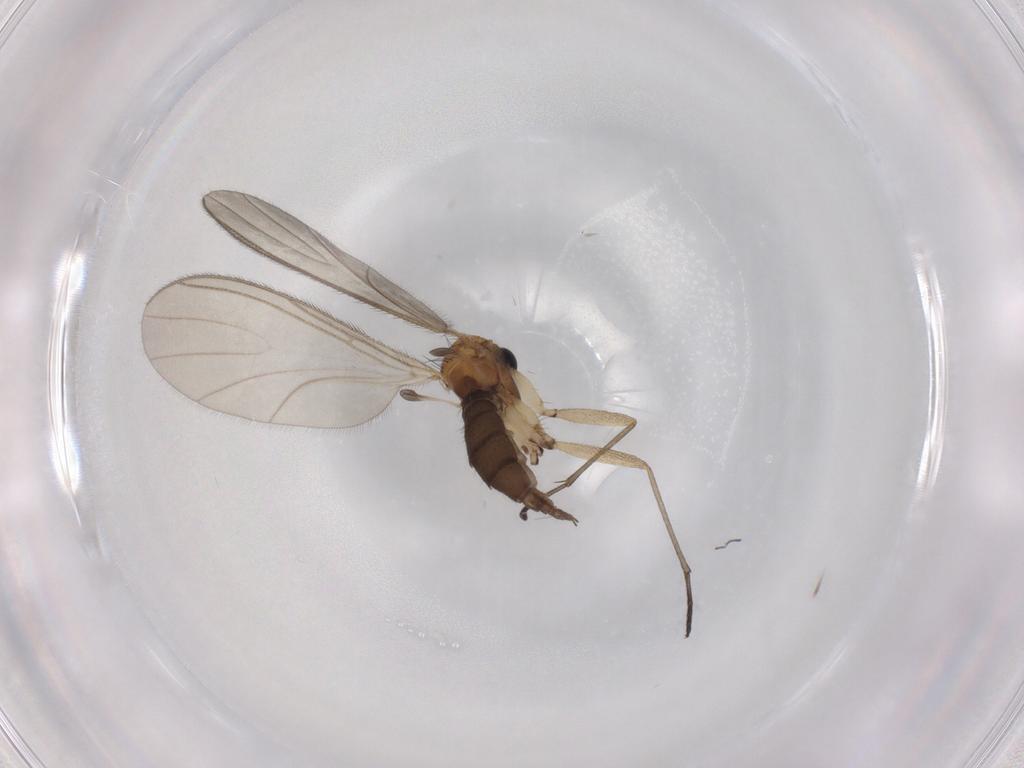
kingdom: Animalia
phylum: Arthropoda
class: Insecta
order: Diptera
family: Sciaridae
